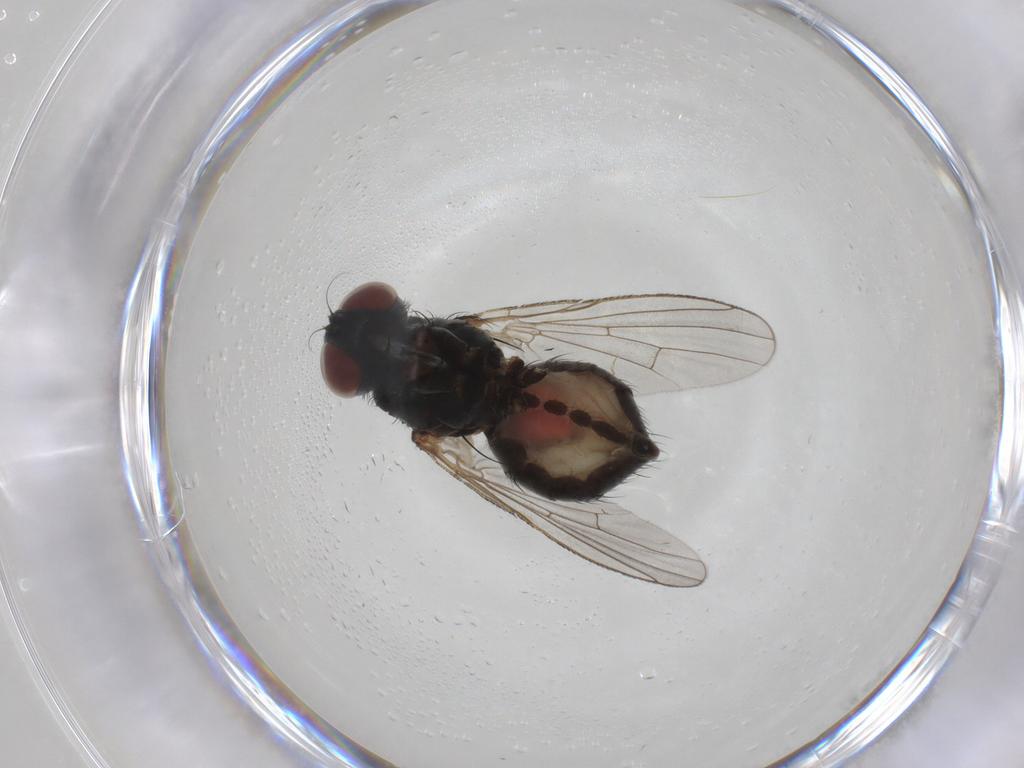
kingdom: Animalia
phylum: Arthropoda
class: Insecta
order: Diptera
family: Muscidae
